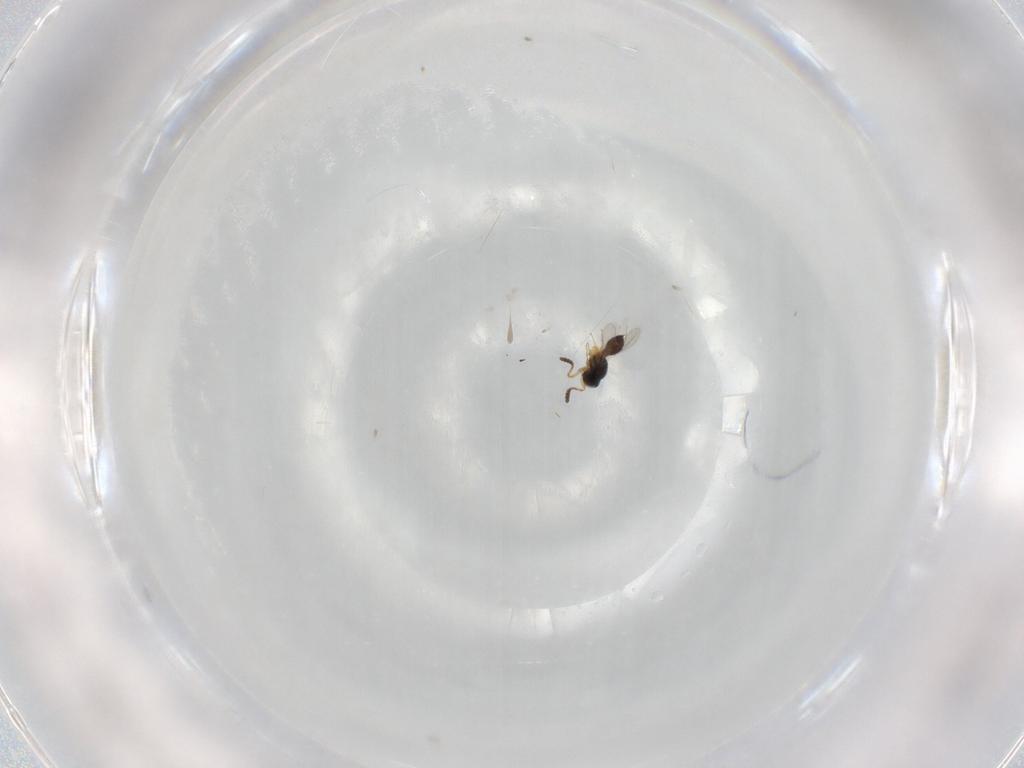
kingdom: Animalia
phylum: Arthropoda
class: Insecta
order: Hymenoptera
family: Scelionidae
